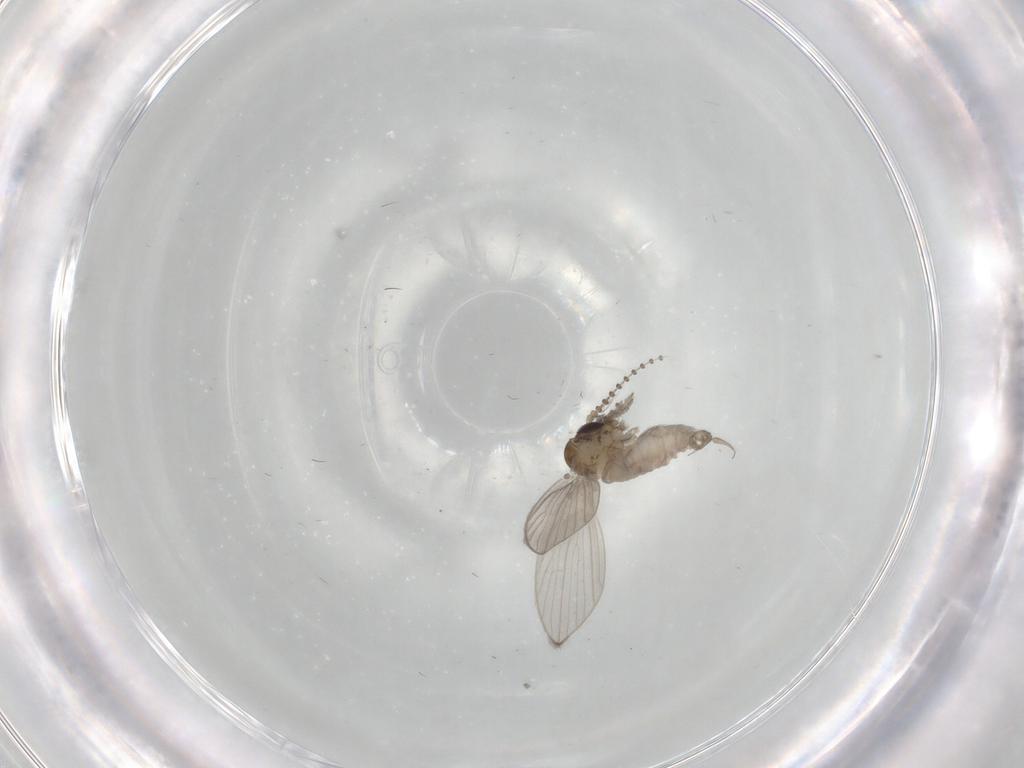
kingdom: Animalia
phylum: Arthropoda
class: Insecta
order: Diptera
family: Psychodidae
